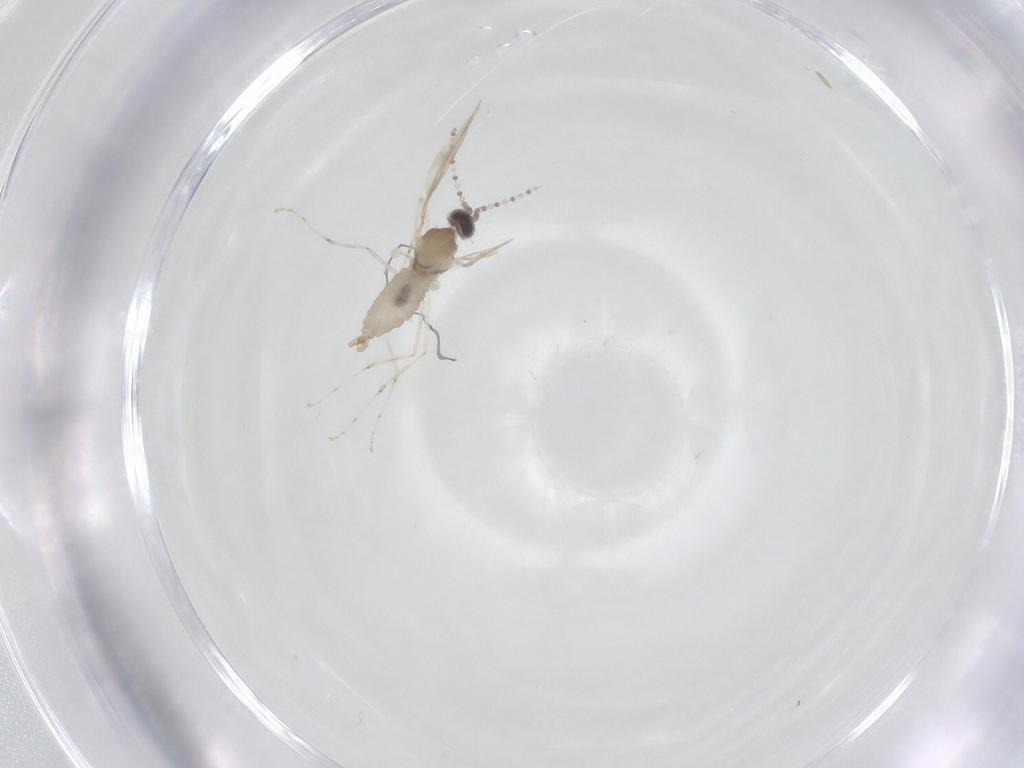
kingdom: Animalia
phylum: Arthropoda
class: Insecta
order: Diptera
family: Cecidomyiidae
